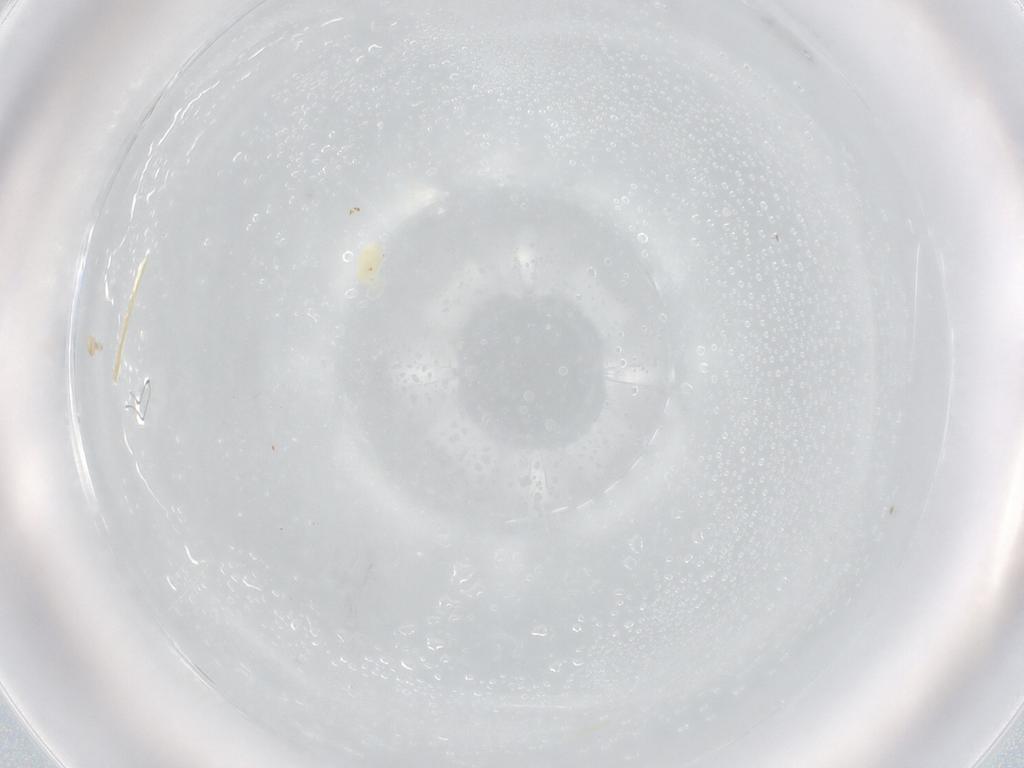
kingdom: Animalia
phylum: Arthropoda
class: Arachnida
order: Trombidiformes
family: Eupodidae
